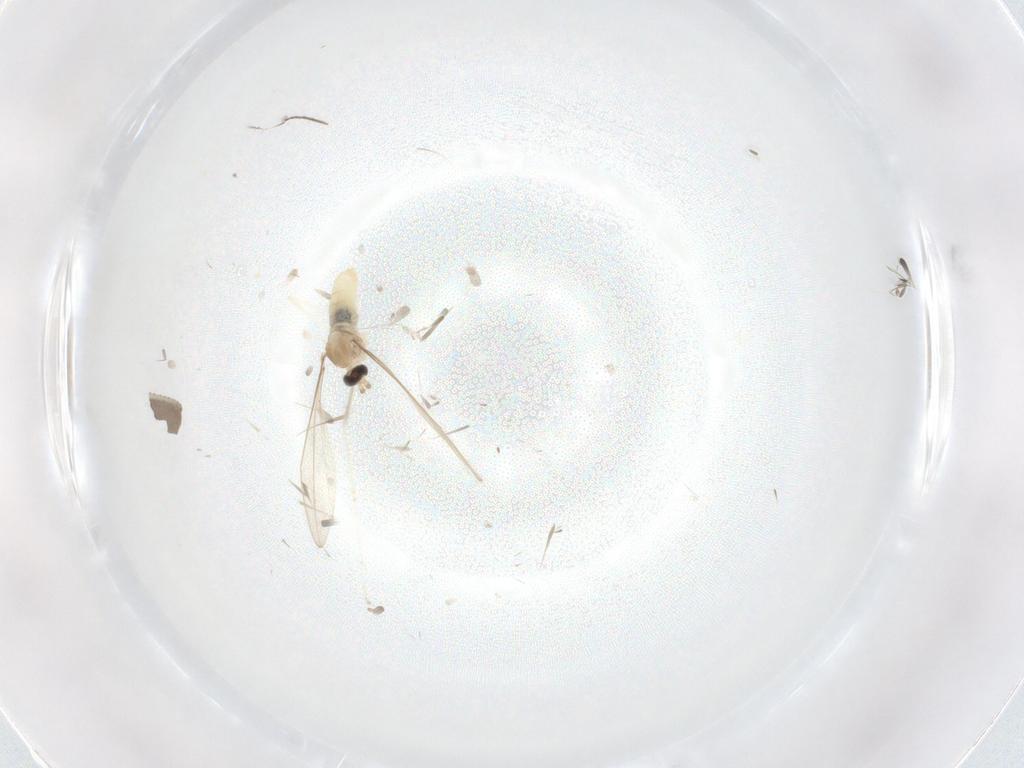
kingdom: Animalia
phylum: Arthropoda
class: Insecta
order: Diptera
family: Cecidomyiidae
